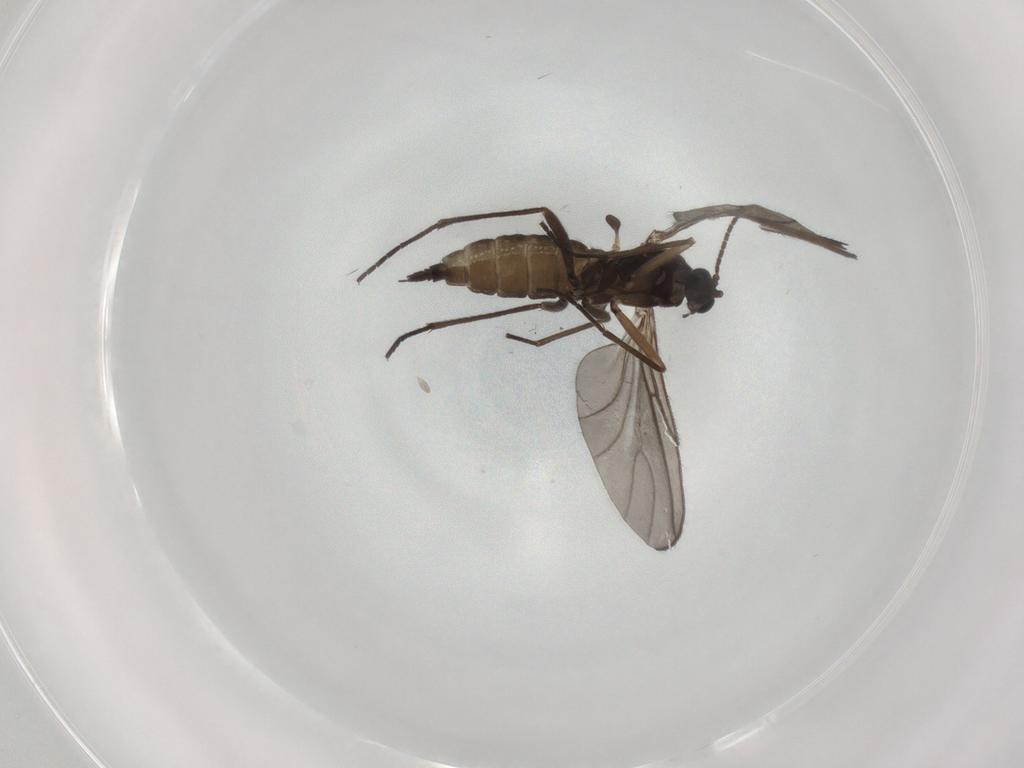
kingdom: Animalia
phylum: Arthropoda
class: Insecta
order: Diptera
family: Sciaridae
